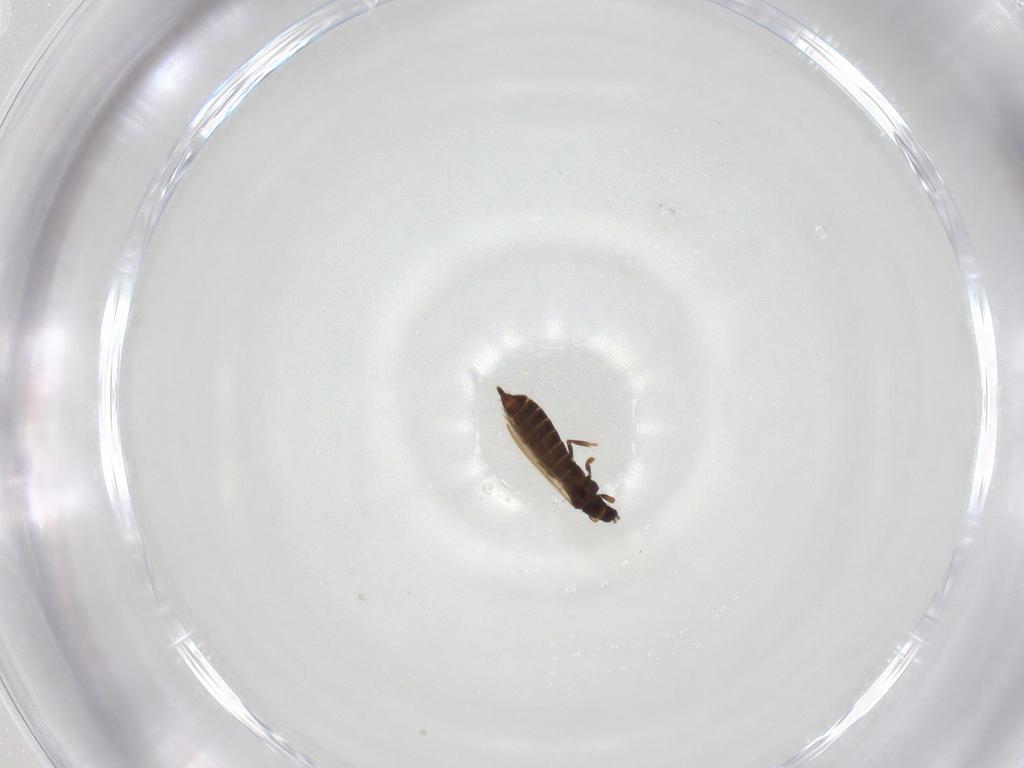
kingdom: Animalia
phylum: Arthropoda
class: Insecta
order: Thysanoptera
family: Thripidae
